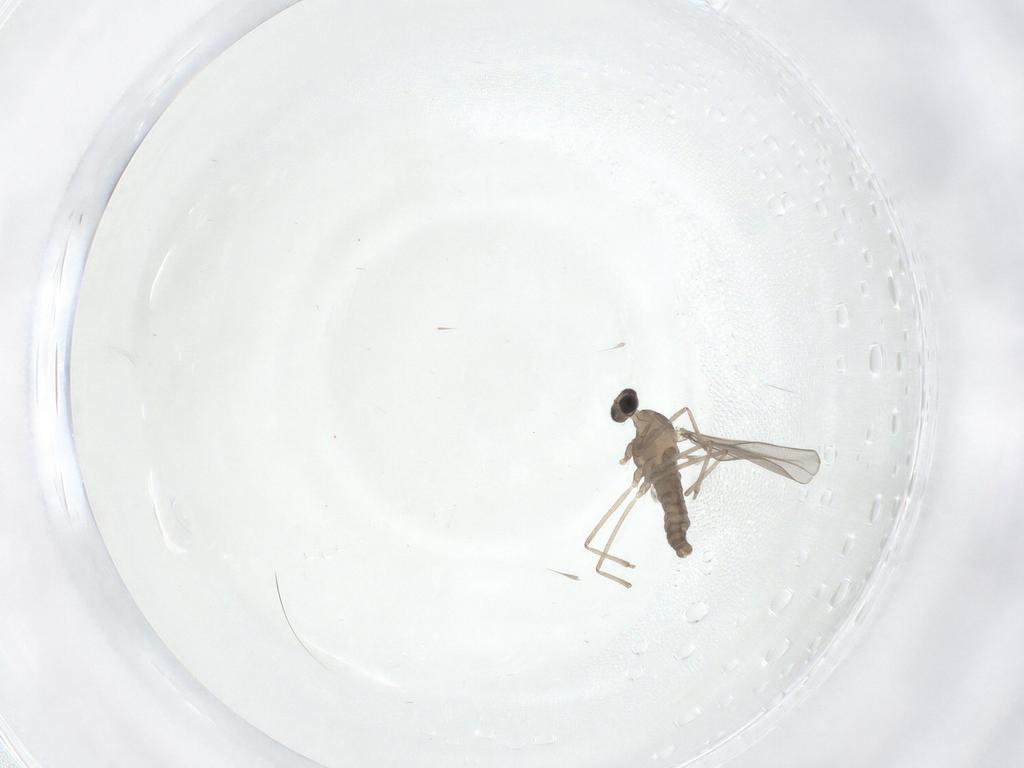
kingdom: Animalia
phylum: Arthropoda
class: Insecta
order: Diptera
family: Cecidomyiidae
